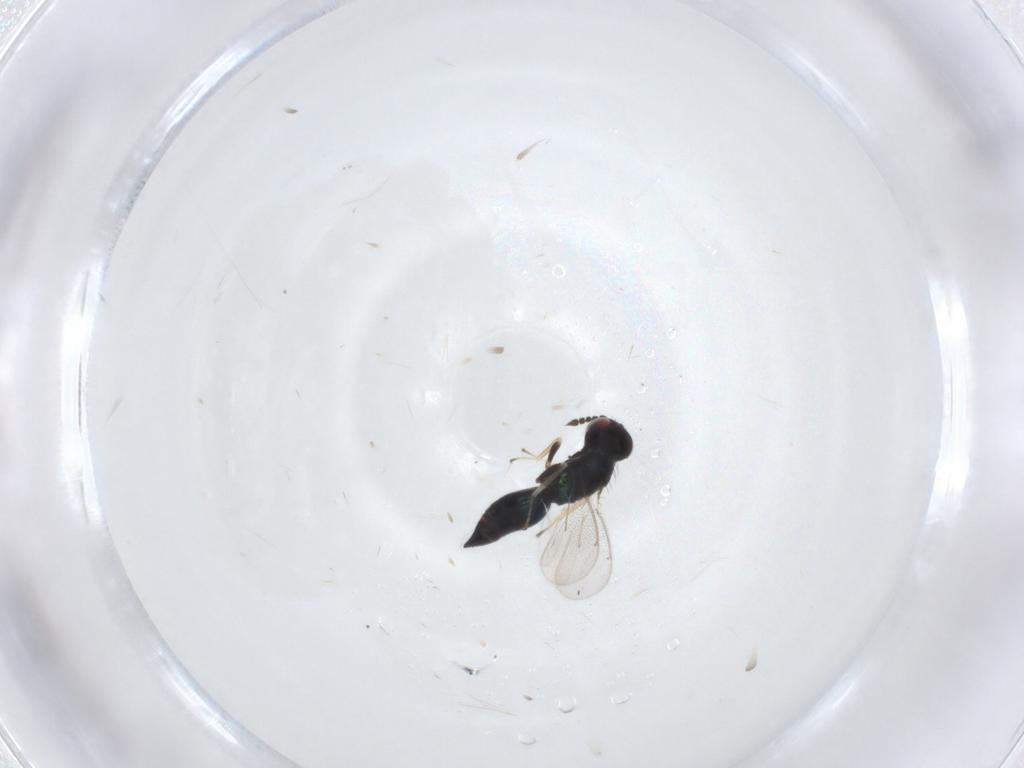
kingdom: Animalia
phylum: Arthropoda
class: Insecta
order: Hymenoptera
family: Eulophidae
